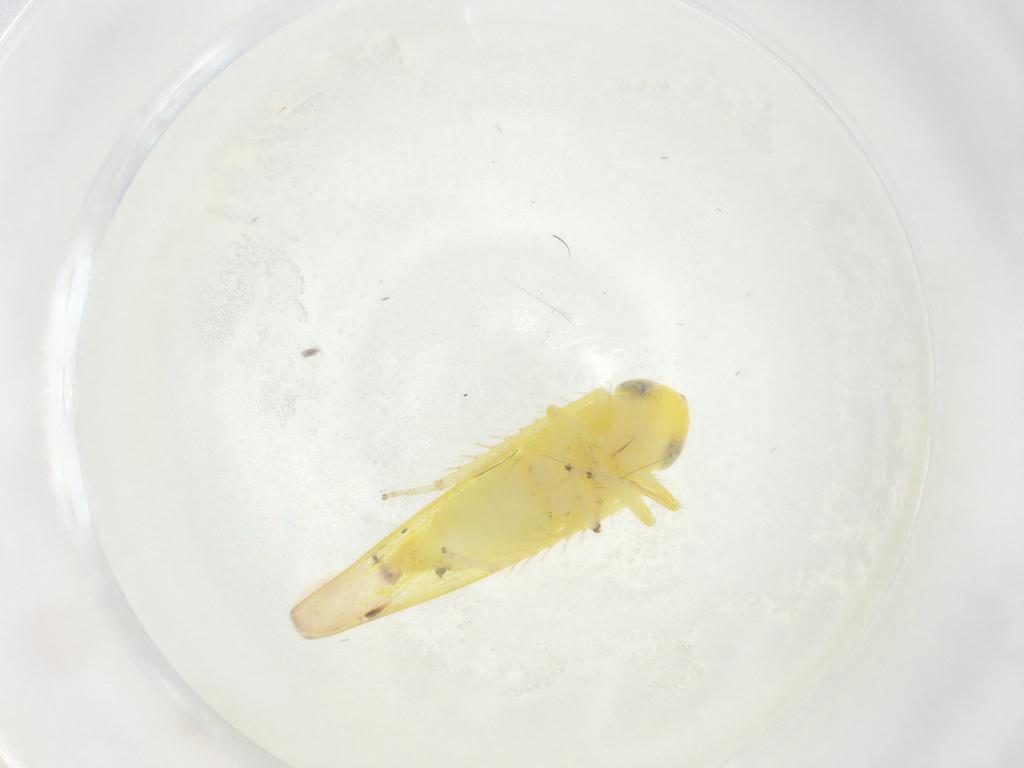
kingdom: Animalia
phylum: Arthropoda
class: Insecta
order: Hemiptera
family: Cicadellidae
